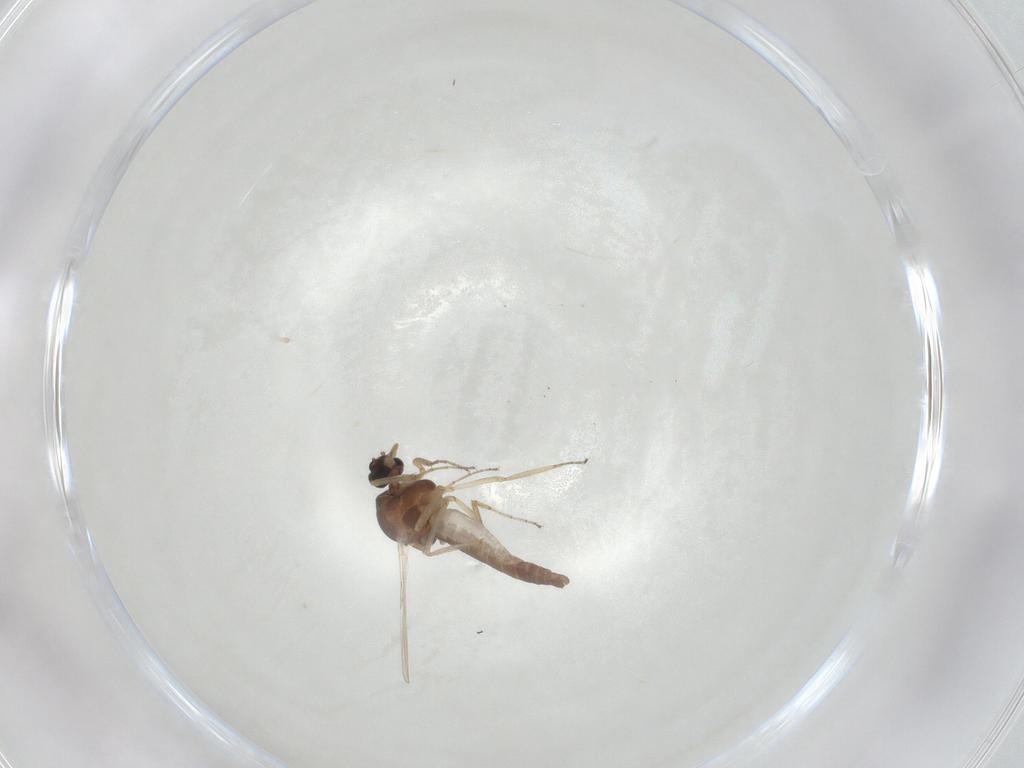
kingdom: Animalia
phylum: Arthropoda
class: Insecta
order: Diptera
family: Ceratopogonidae
